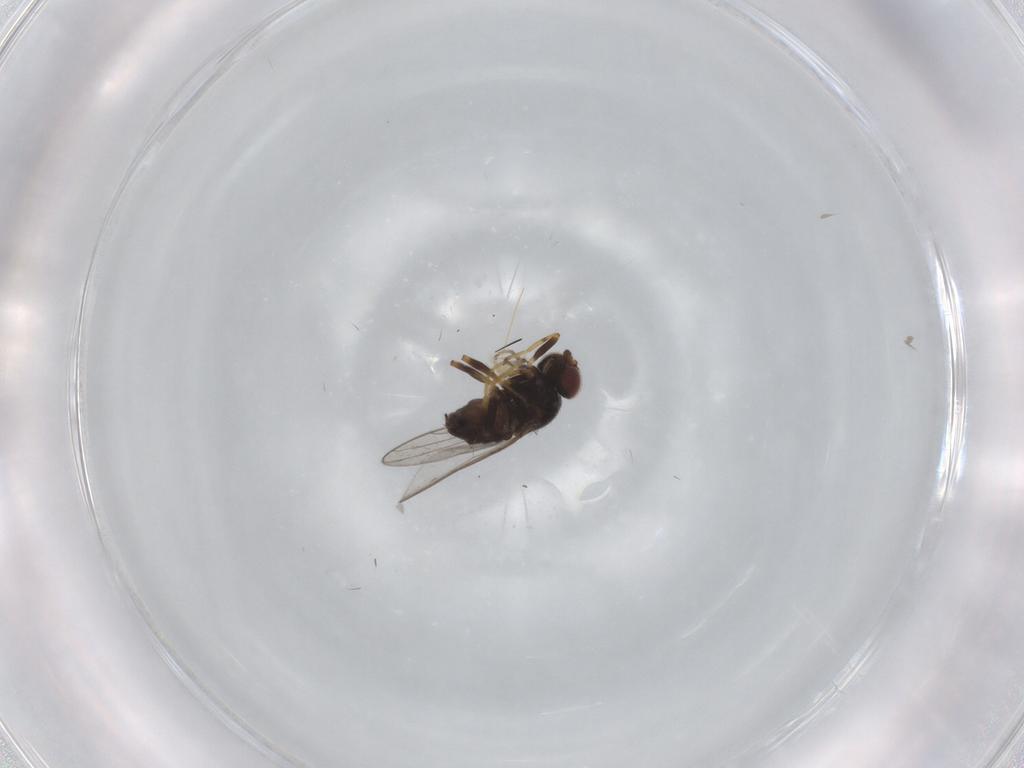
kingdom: Animalia
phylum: Arthropoda
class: Insecta
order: Diptera
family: Chloropidae
